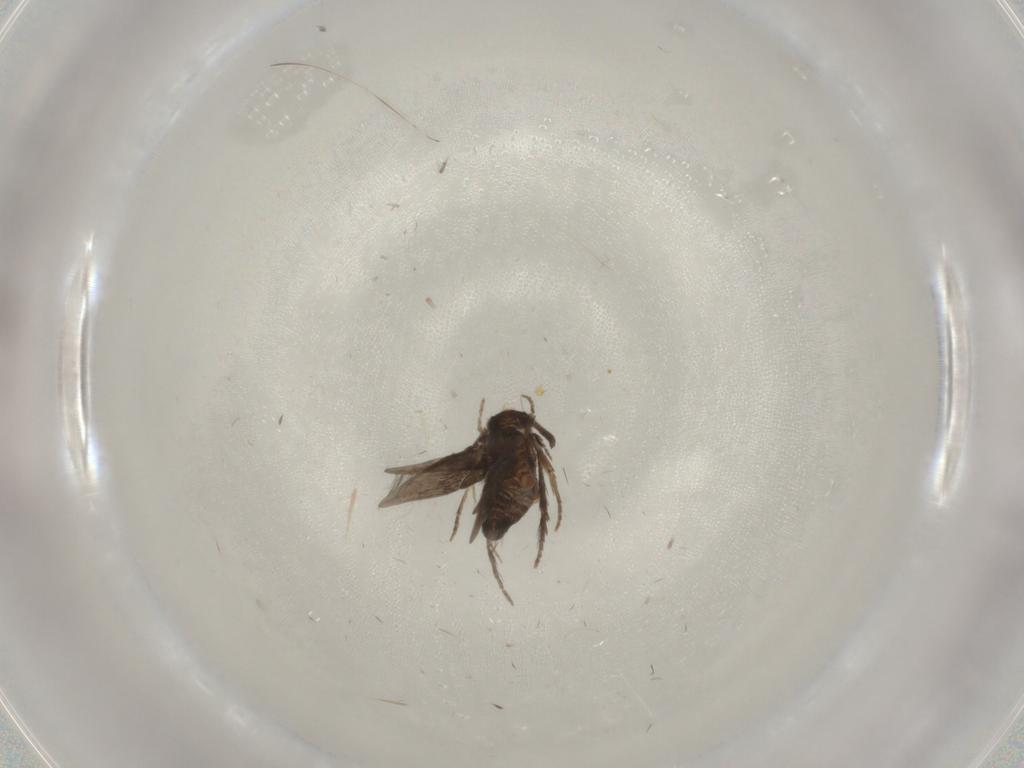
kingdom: Animalia
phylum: Arthropoda
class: Insecta
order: Trichoptera
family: Hydroptilidae
